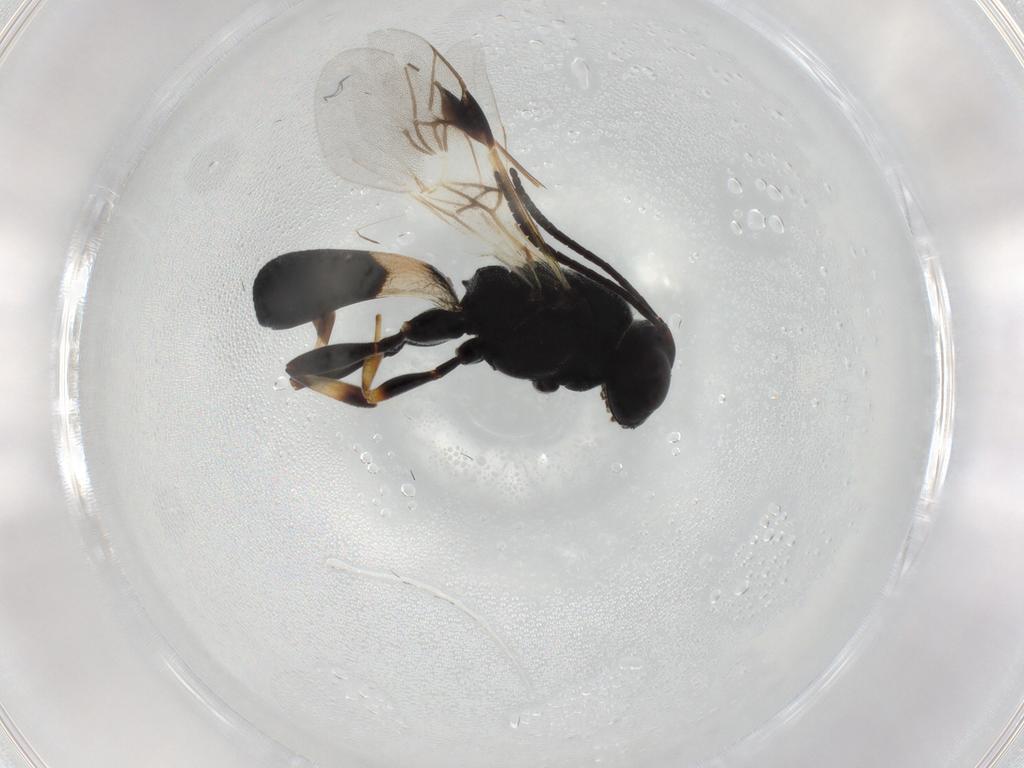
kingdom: Animalia
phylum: Arthropoda
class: Insecta
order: Hymenoptera
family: Braconidae
